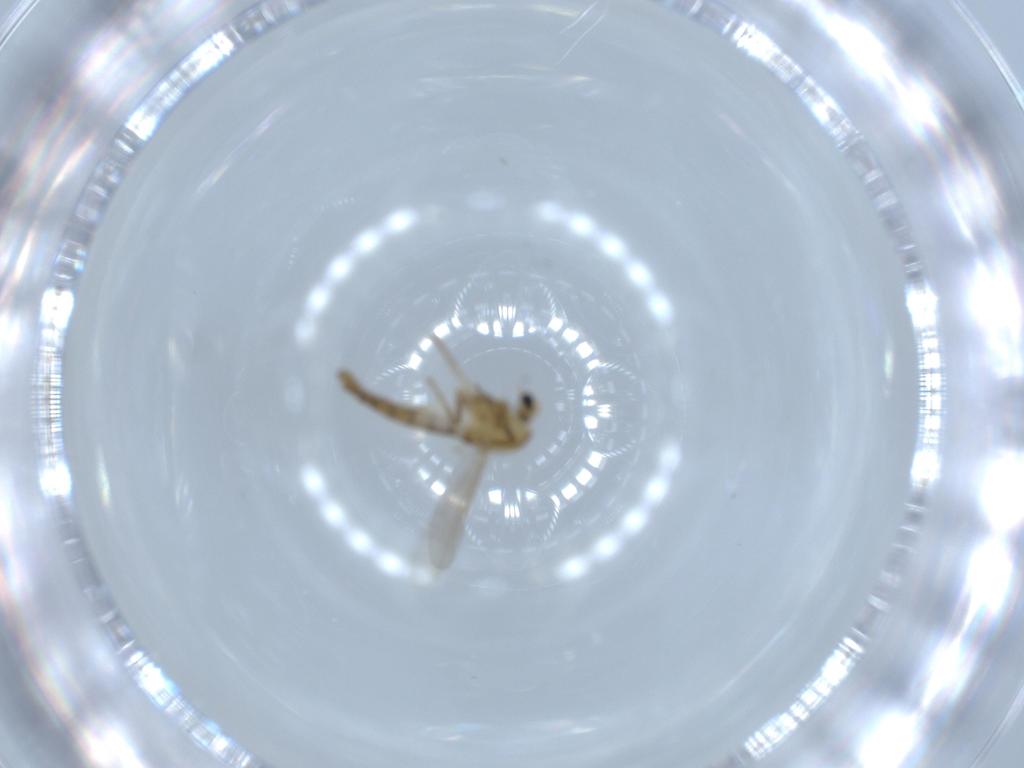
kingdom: Animalia
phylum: Arthropoda
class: Insecta
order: Diptera
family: Chironomidae
